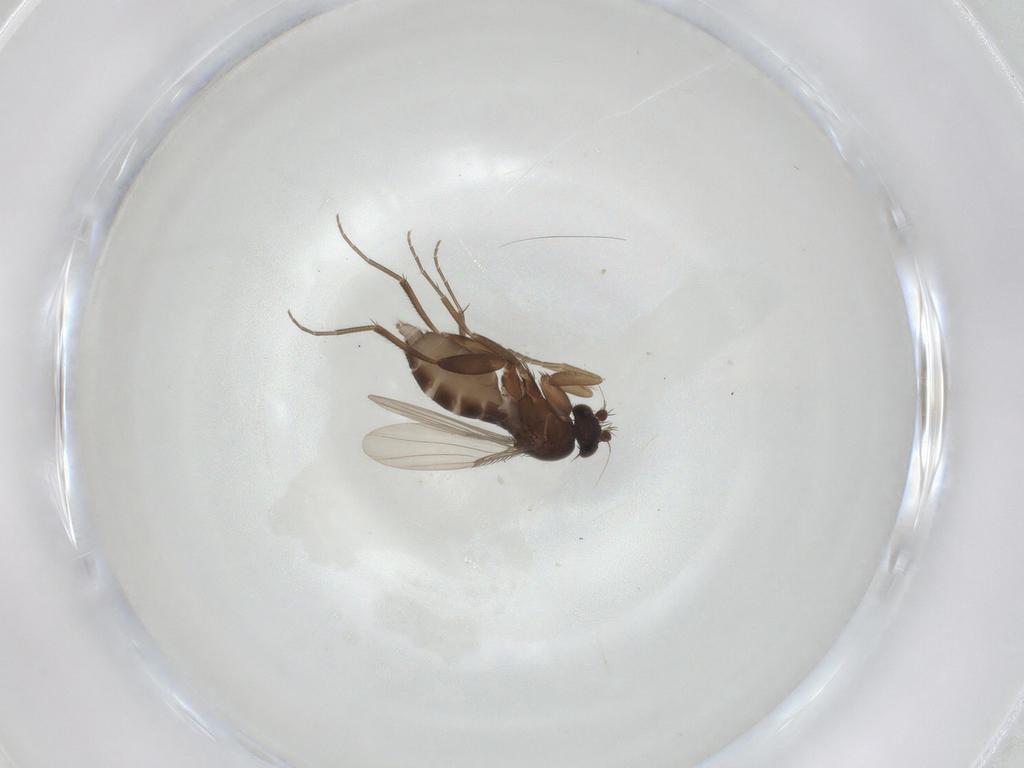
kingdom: Animalia
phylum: Arthropoda
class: Insecta
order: Diptera
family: Phoridae
